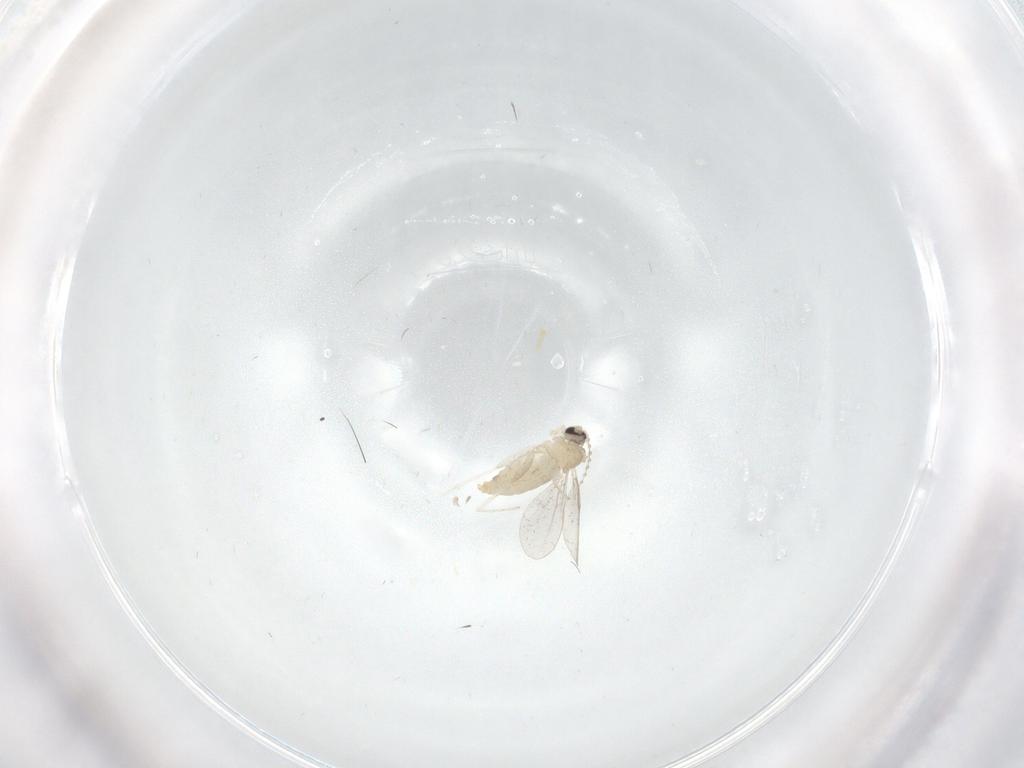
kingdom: Animalia
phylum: Arthropoda
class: Insecta
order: Diptera
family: Cecidomyiidae
